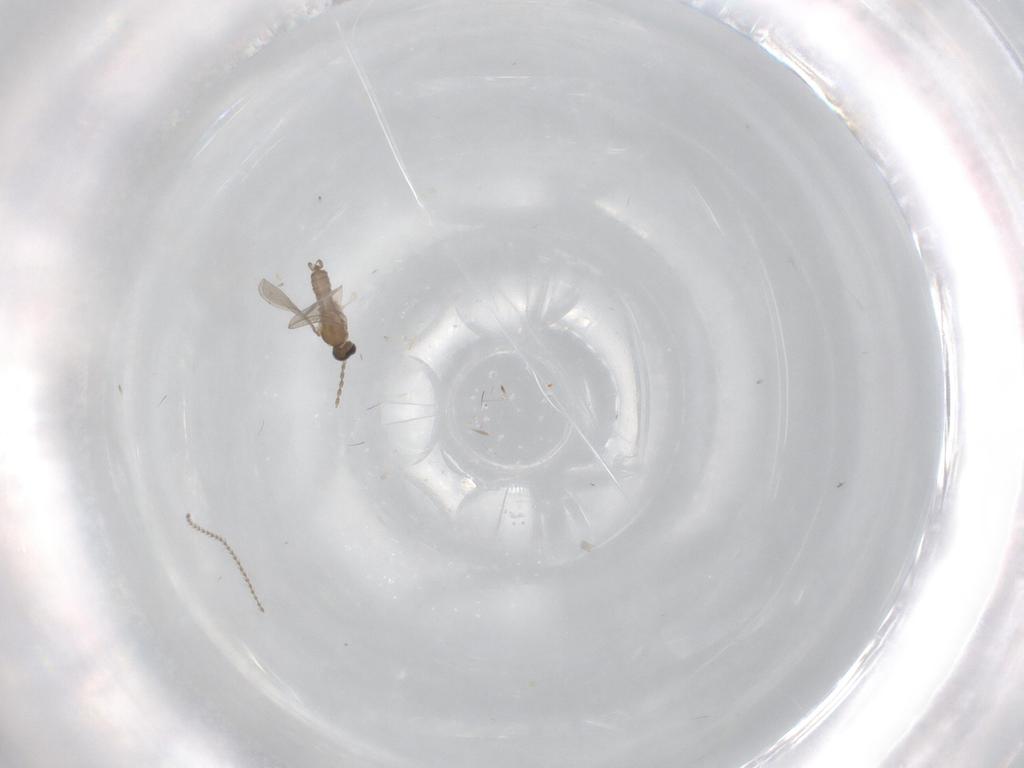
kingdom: Animalia
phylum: Arthropoda
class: Insecta
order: Diptera
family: Cecidomyiidae
